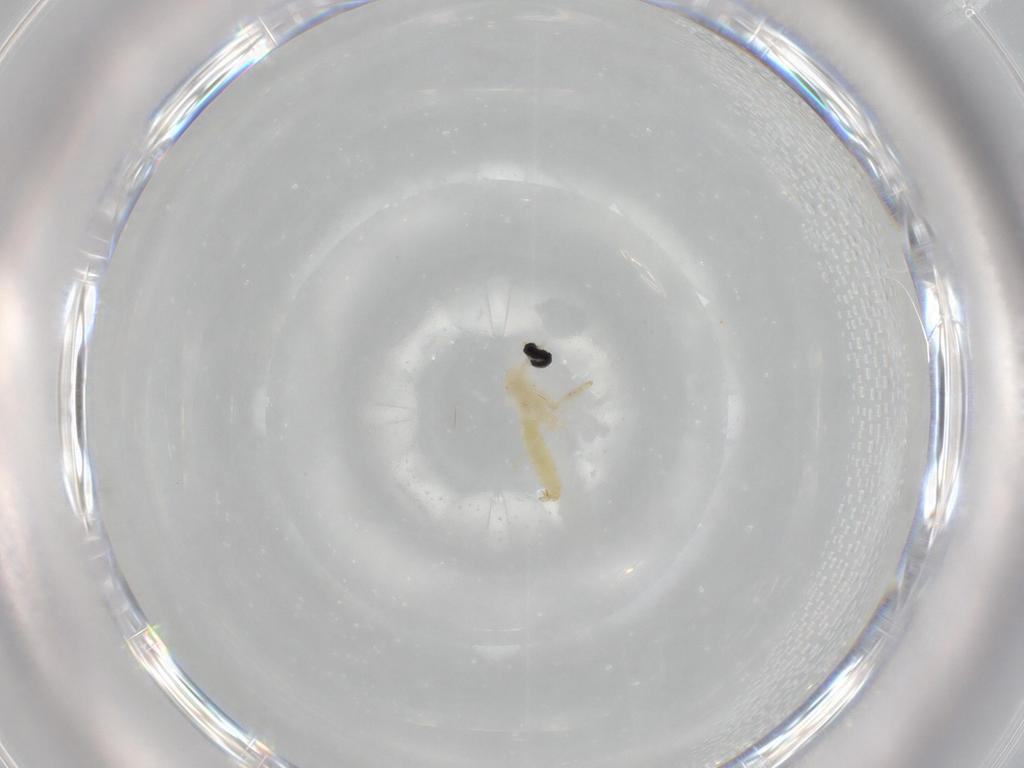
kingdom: Animalia
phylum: Arthropoda
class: Insecta
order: Diptera
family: Cecidomyiidae
